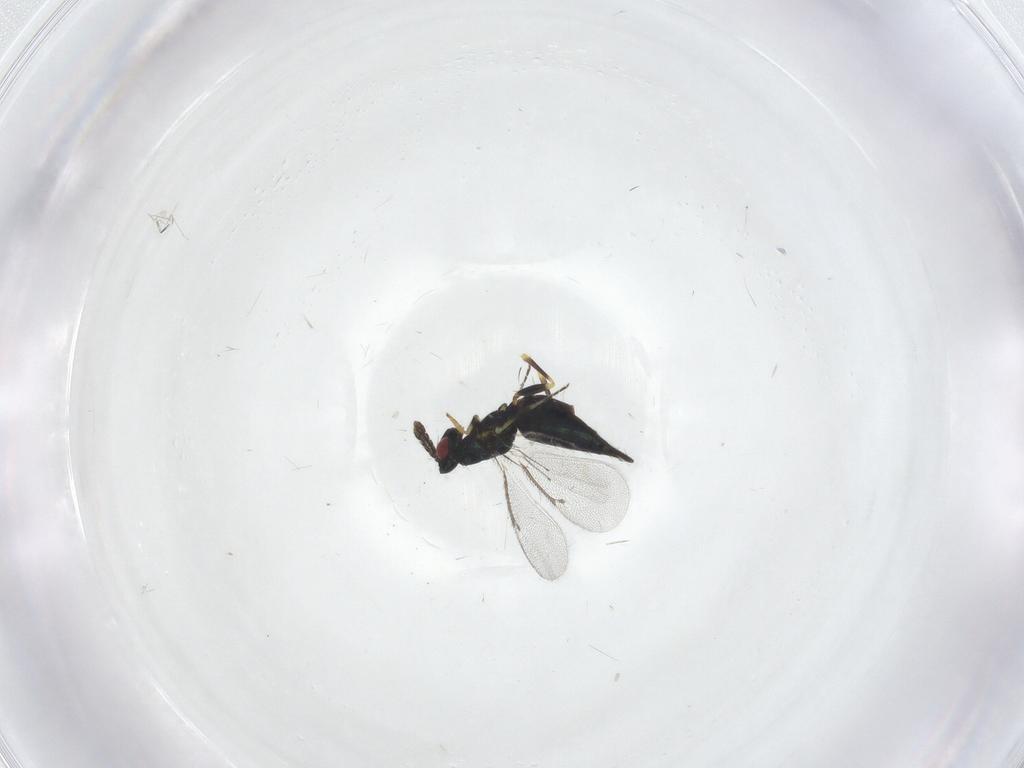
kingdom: Animalia
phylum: Arthropoda
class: Insecta
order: Hymenoptera
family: Eulophidae
